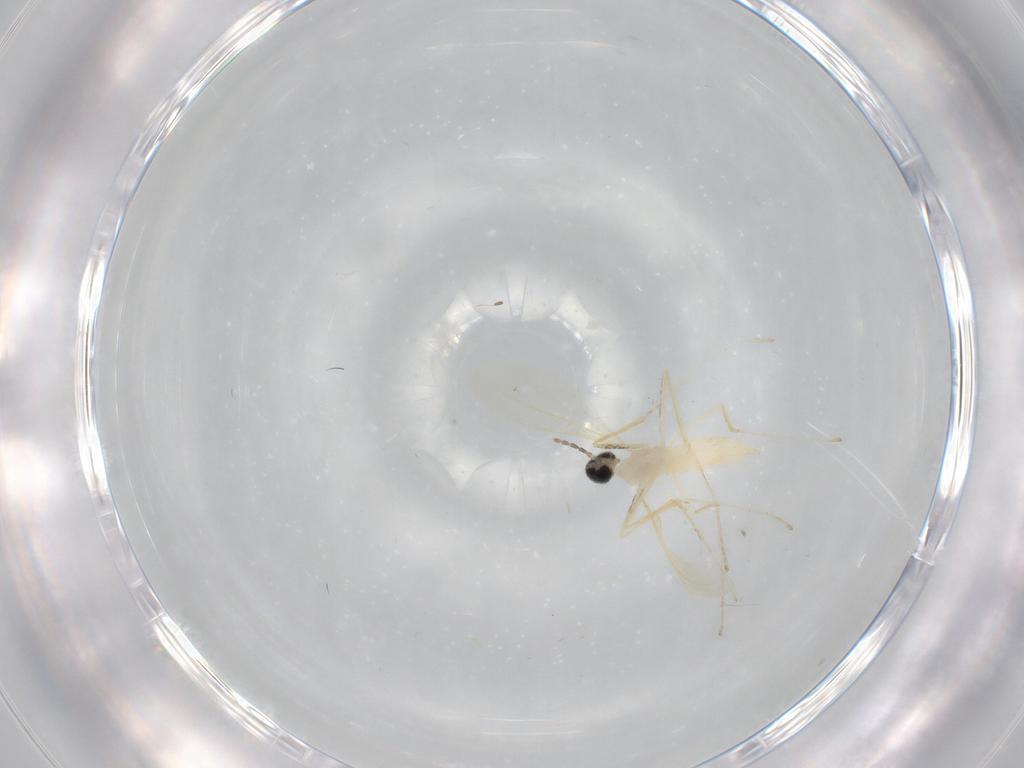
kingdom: Animalia
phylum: Arthropoda
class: Insecta
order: Diptera
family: Cecidomyiidae
